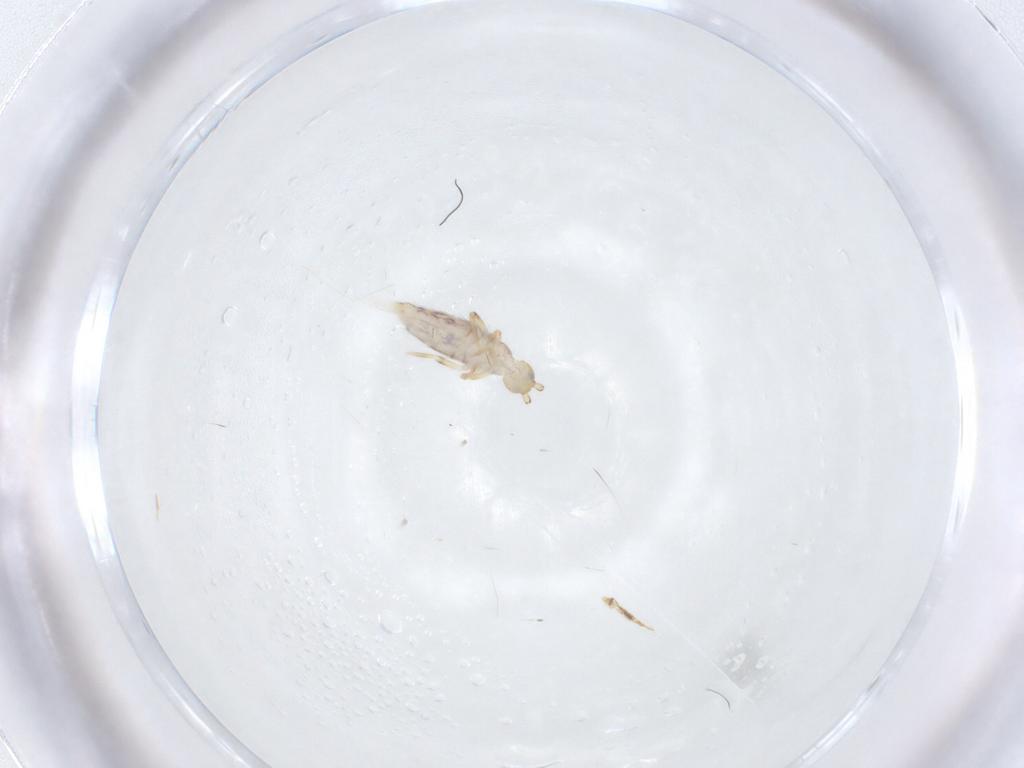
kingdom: Animalia
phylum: Arthropoda
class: Collembola
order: Entomobryomorpha
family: Entomobryidae
